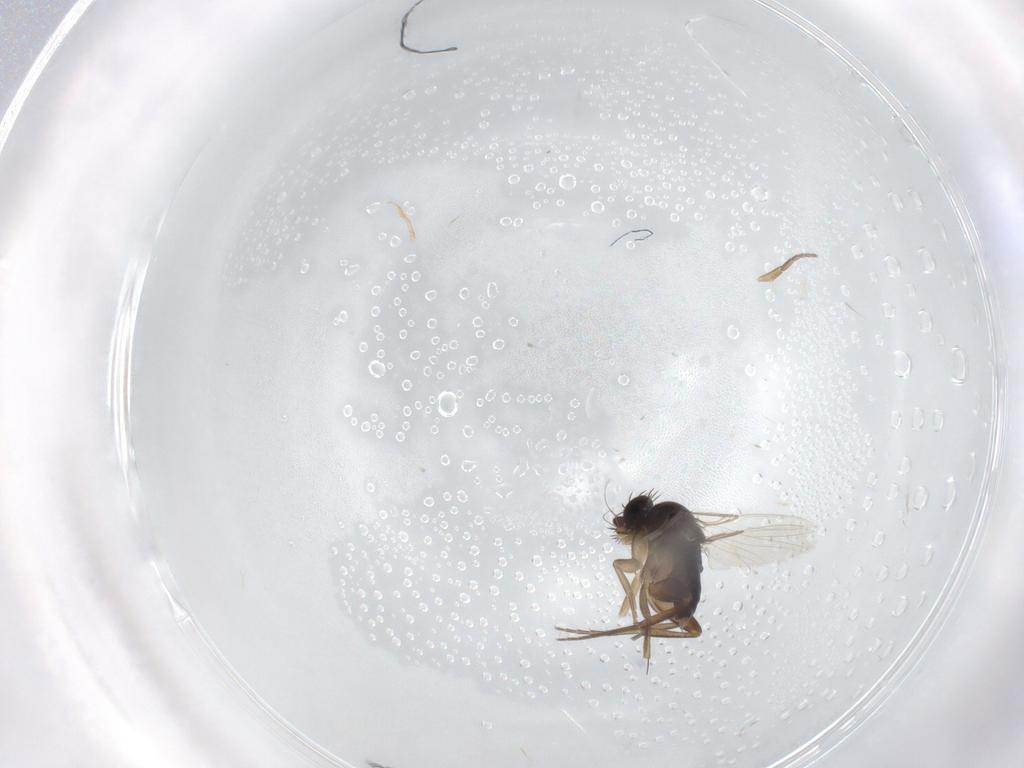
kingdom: Animalia
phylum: Arthropoda
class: Insecta
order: Diptera
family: Phoridae
